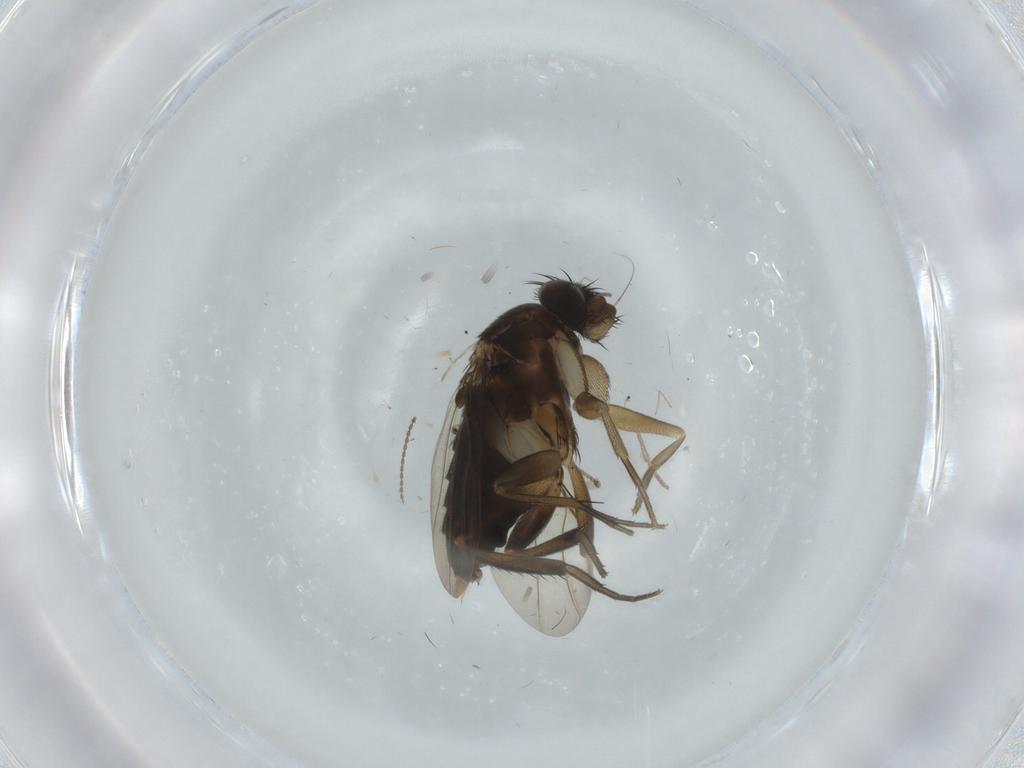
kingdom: Animalia
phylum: Arthropoda
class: Insecta
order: Diptera
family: Phoridae
